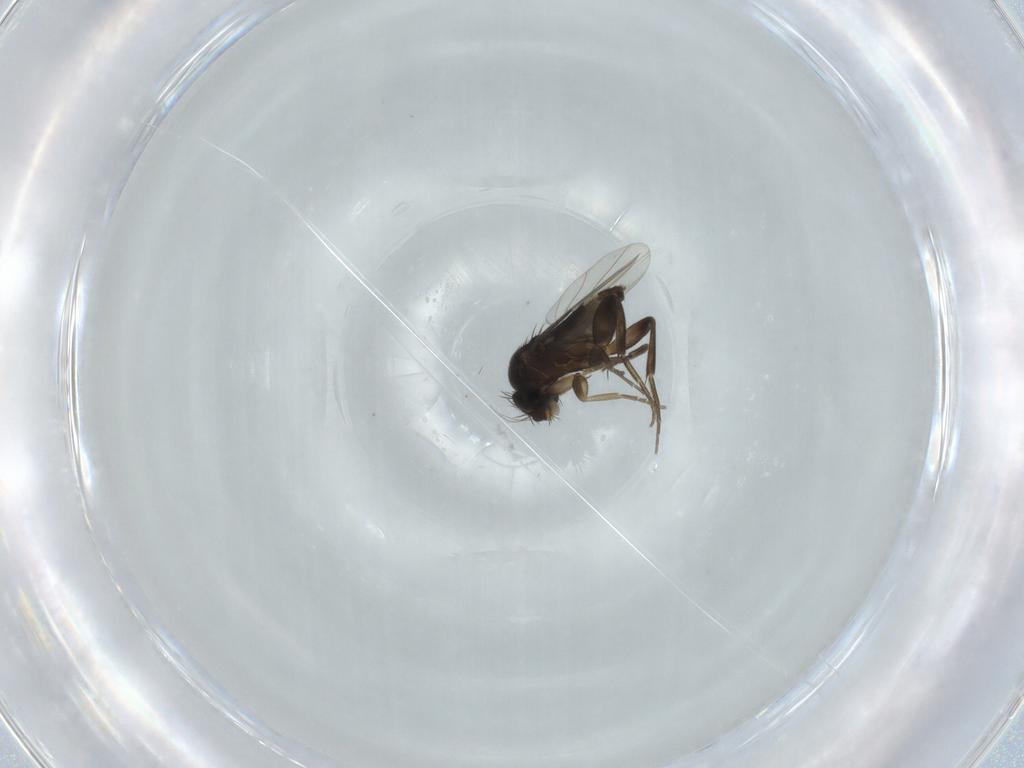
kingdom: Animalia
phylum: Arthropoda
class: Insecta
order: Diptera
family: Phoridae
